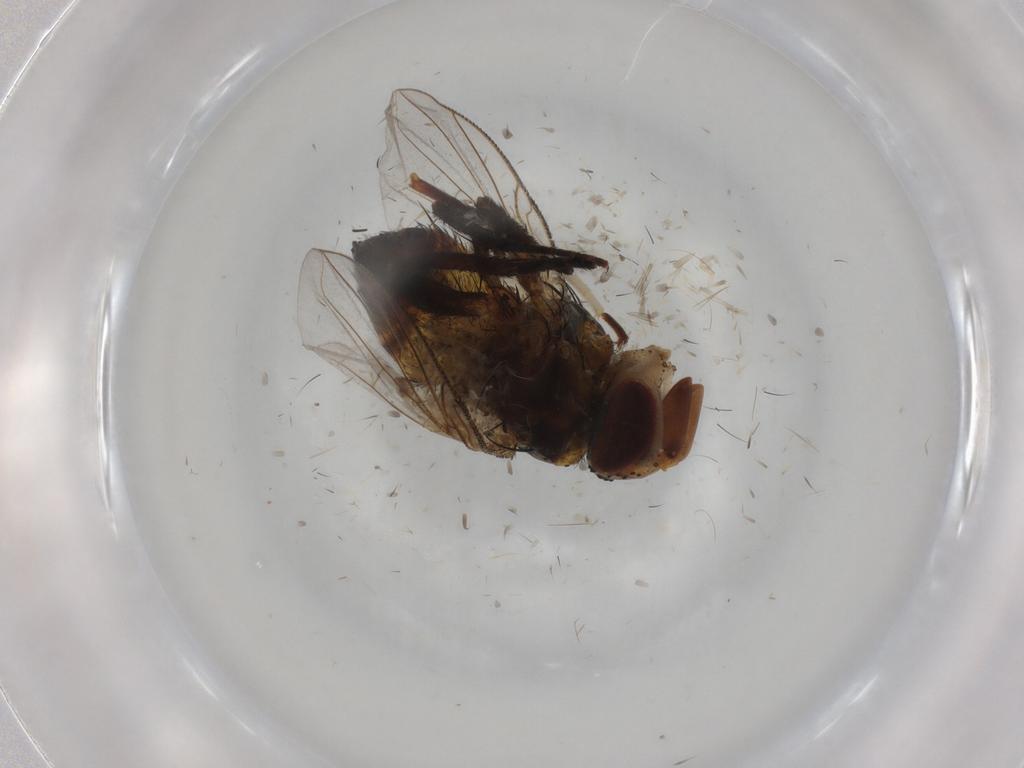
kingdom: Animalia
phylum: Arthropoda
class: Insecta
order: Diptera
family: Glossinidae
